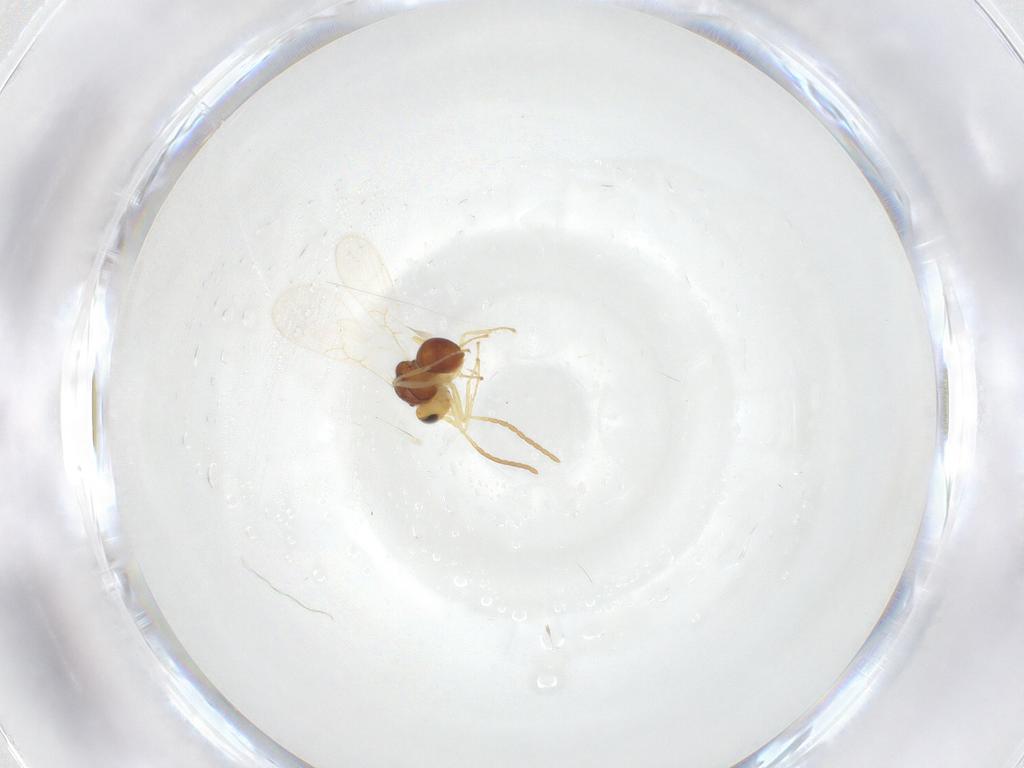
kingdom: Animalia
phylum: Arthropoda
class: Insecta
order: Hymenoptera
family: Figitidae
